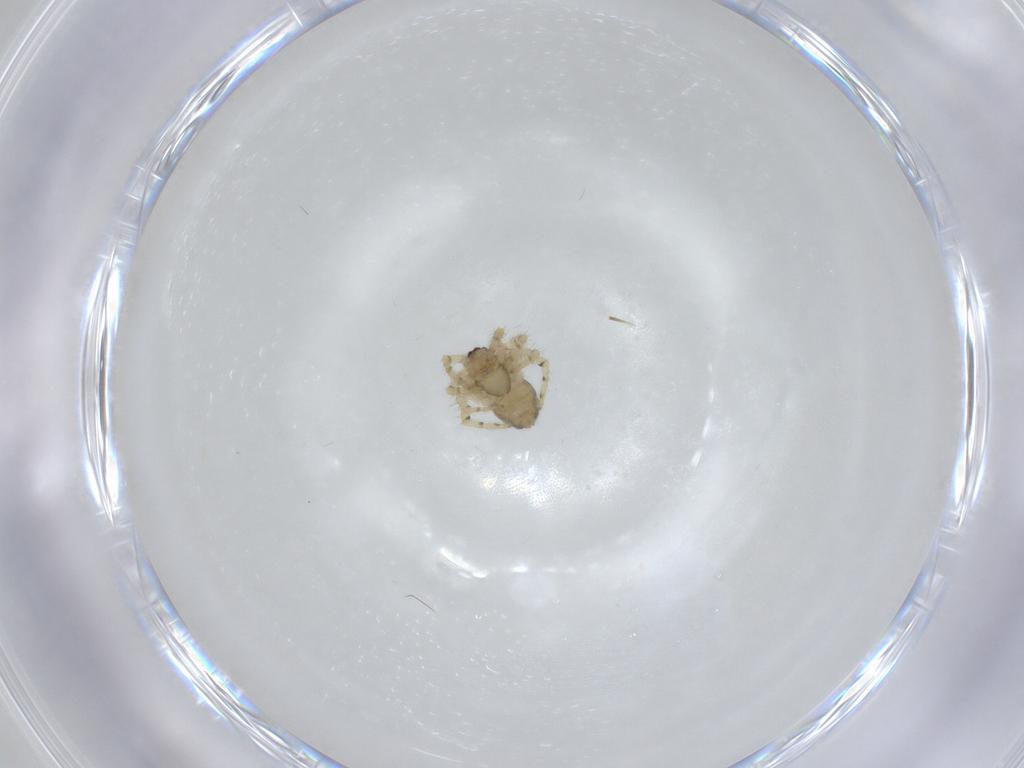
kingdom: Animalia
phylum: Arthropoda
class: Arachnida
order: Araneae
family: Theridiidae
